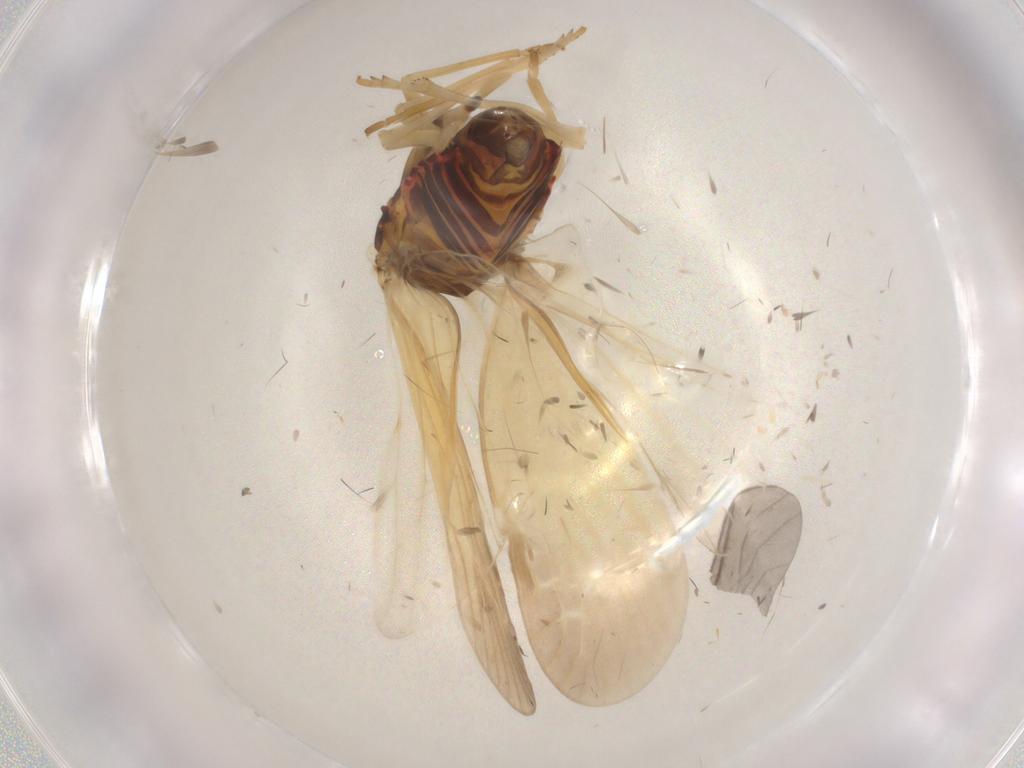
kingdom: Animalia
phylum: Arthropoda
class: Insecta
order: Hemiptera
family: Derbidae
